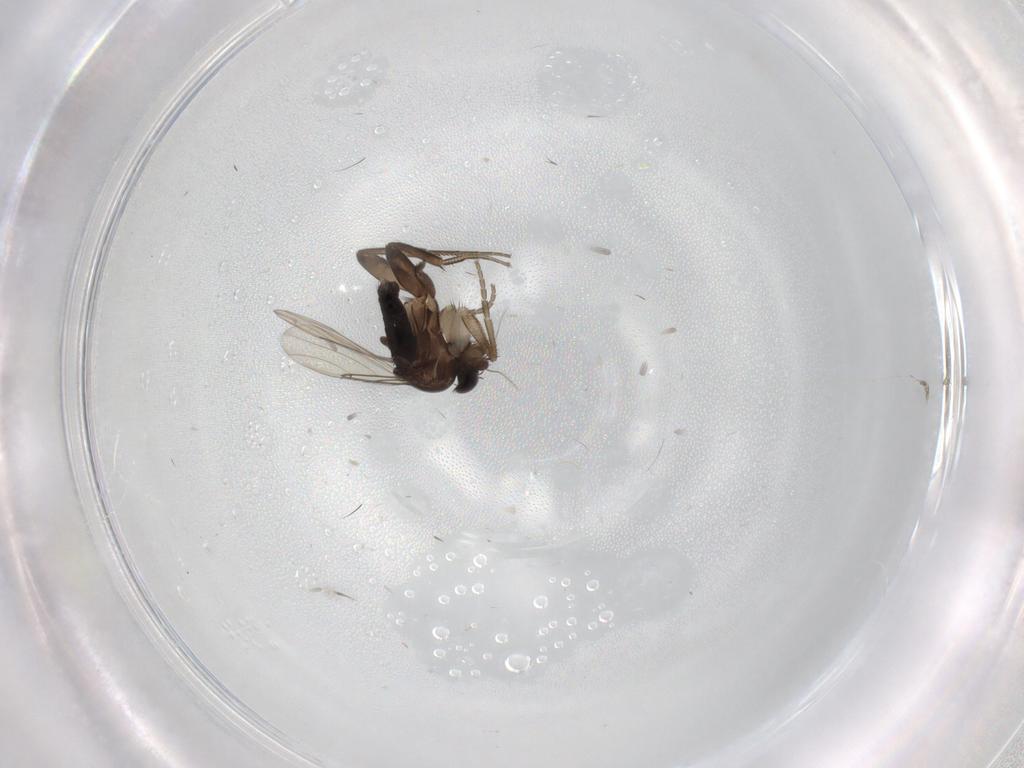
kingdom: Animalia
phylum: Arthropoda
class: Insecta
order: Diptera
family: Phoridae
